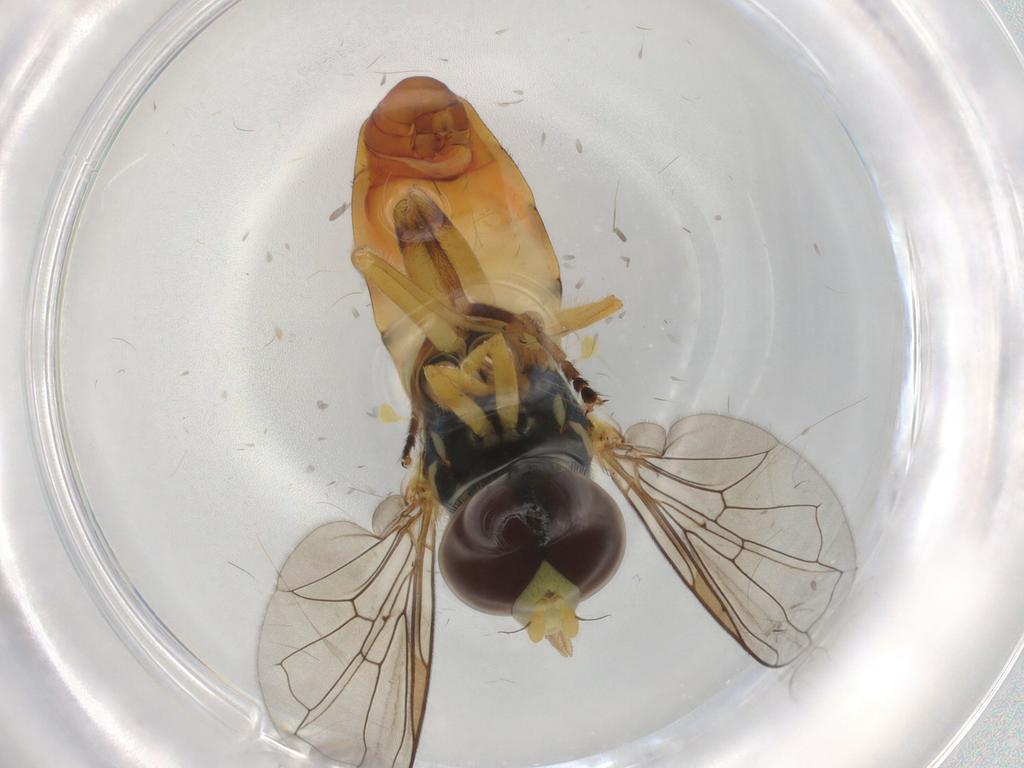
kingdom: Animalia
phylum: Arthropoda
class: Insecta
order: Diptera
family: Syrphidae
